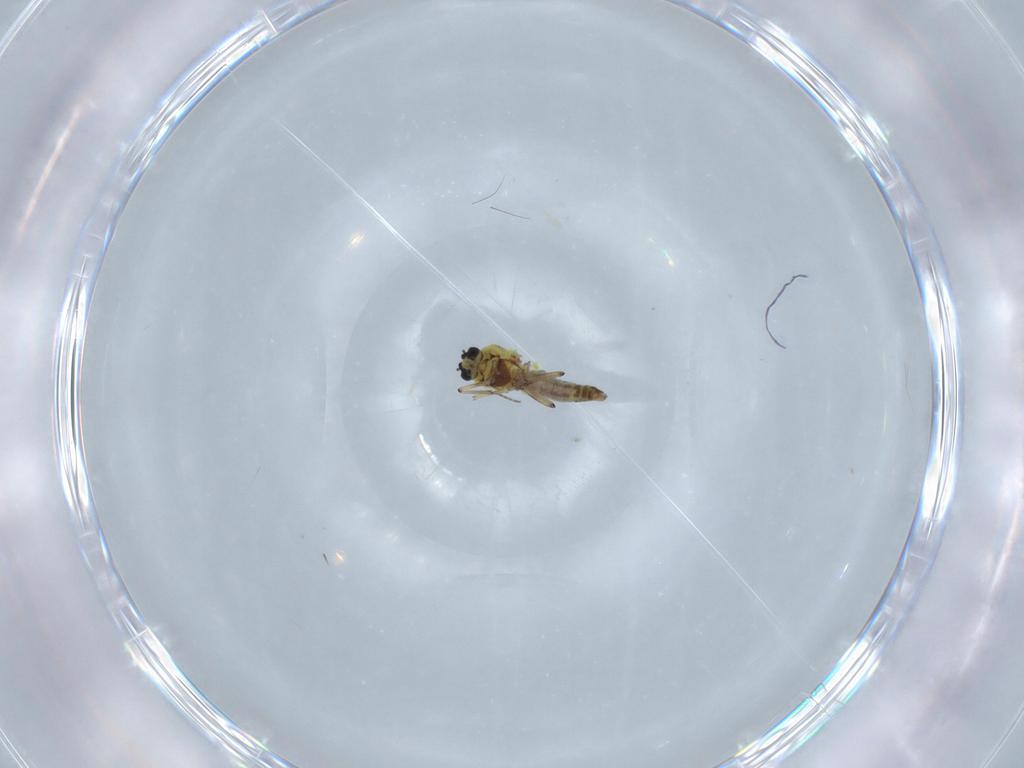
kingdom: Animalia
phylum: Arthropoda
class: Insecta
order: Diptera
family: Ceratopogonidae
